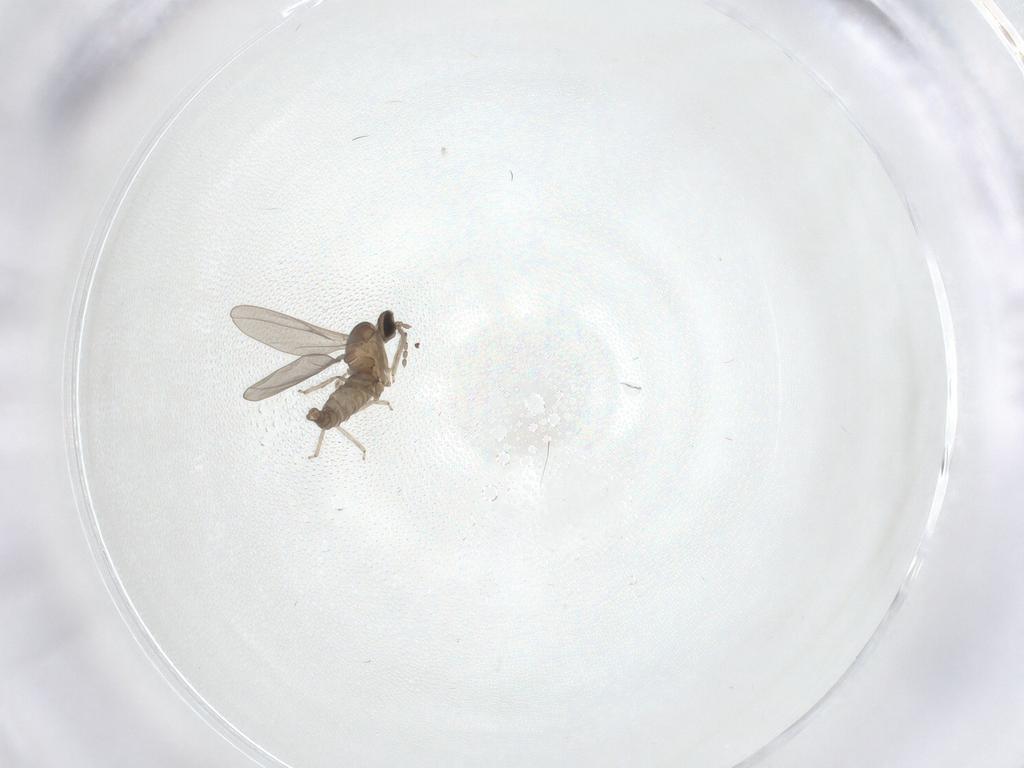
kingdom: Animalia
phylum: Arthropoda
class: Insecta
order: Diptera
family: Cecidomyiidae
